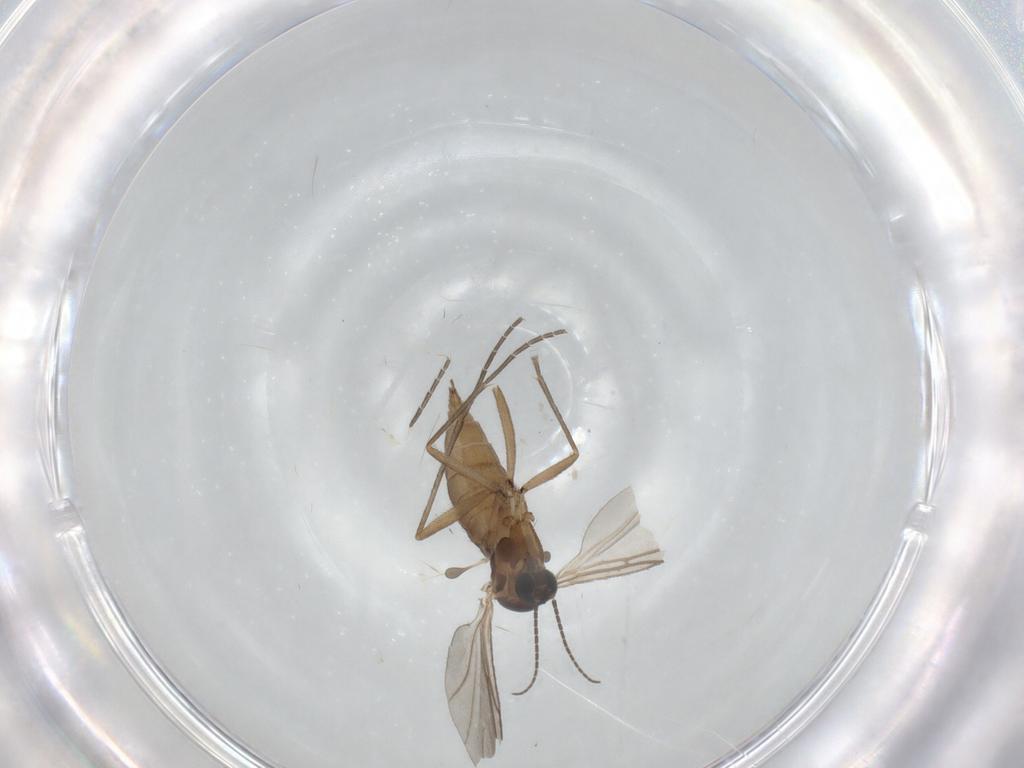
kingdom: Animalia
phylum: Arthropoda
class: Insecta
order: Diptera
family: Sciaridae
